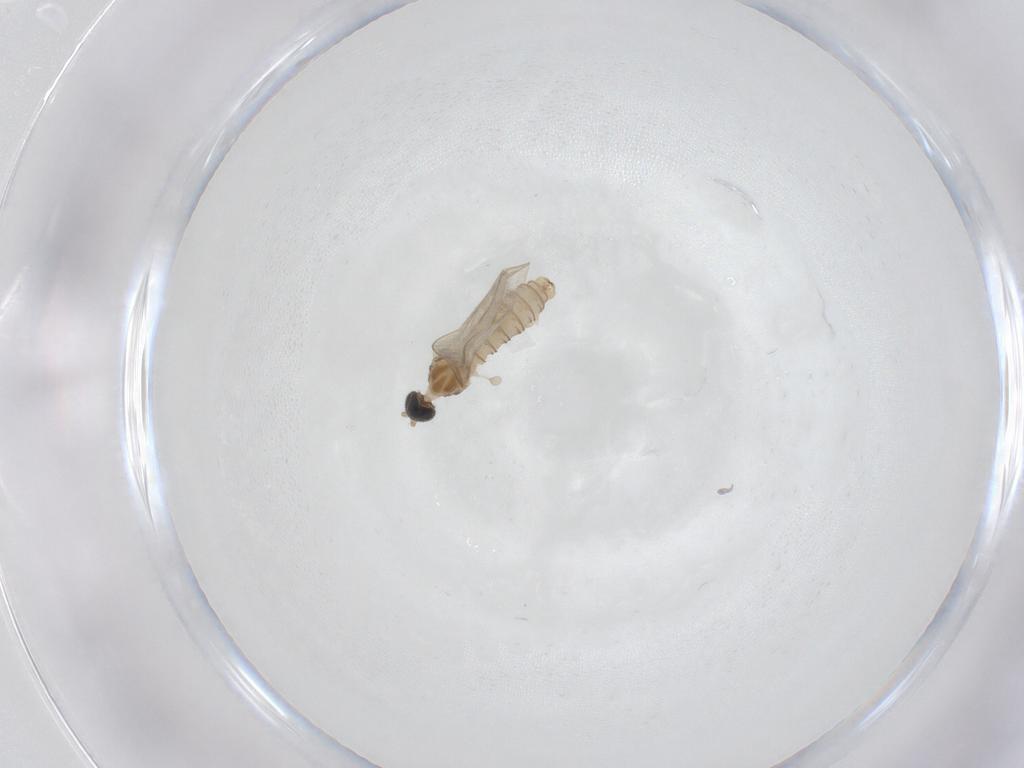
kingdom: Animalia
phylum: Arthropoda
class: Insecta
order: Diptera
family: Cecidomyiidae
